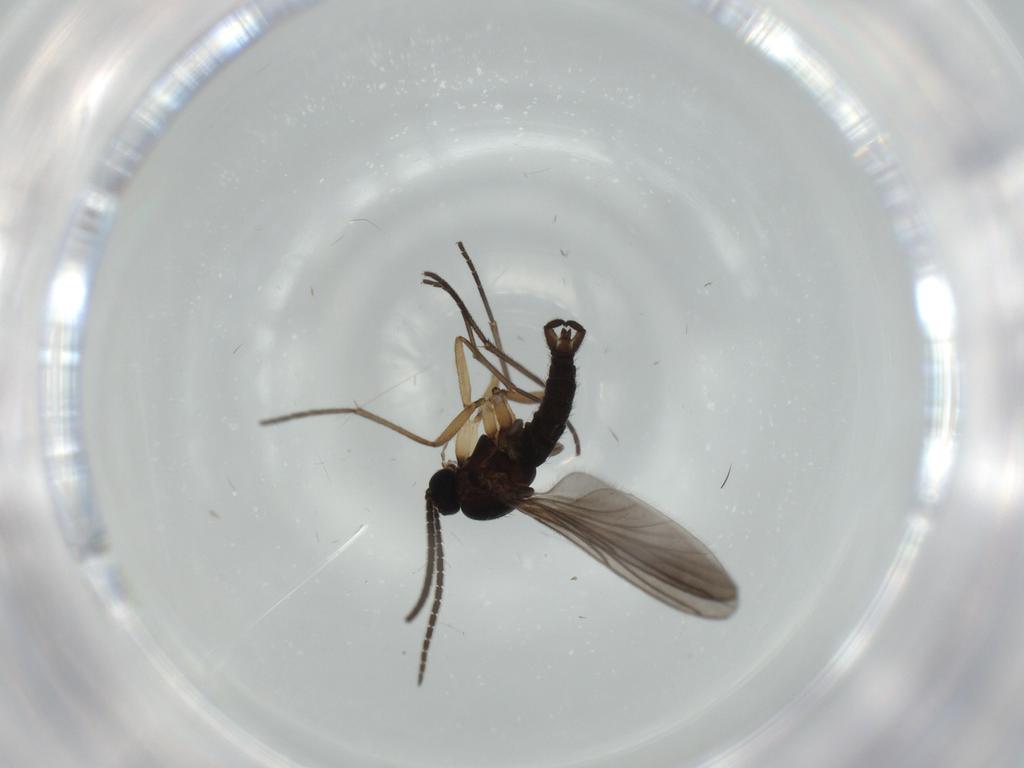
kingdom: Animalia
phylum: Arthropoda
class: Insecta
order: Diptera
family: Sciaridae
